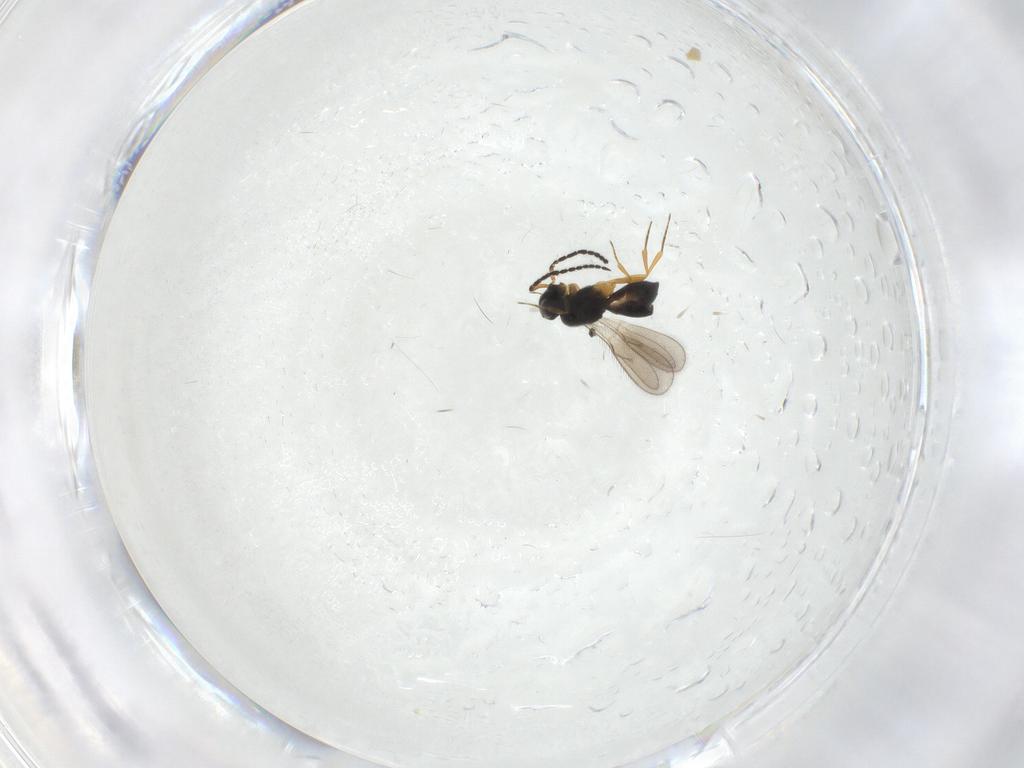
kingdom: Animalia
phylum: Arthropoda
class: Insecta
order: Hymenoptera
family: Scelionidae
